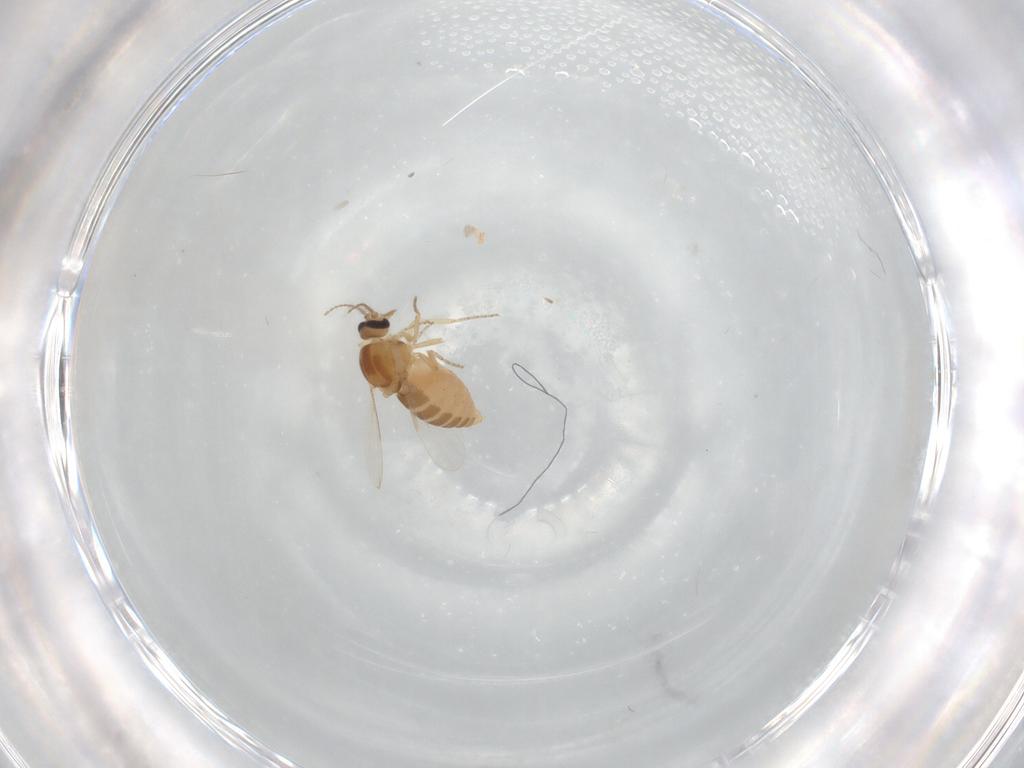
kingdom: Animalia
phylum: Arthropoda
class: Insecta
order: Diptera
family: Ceratopogonidae
